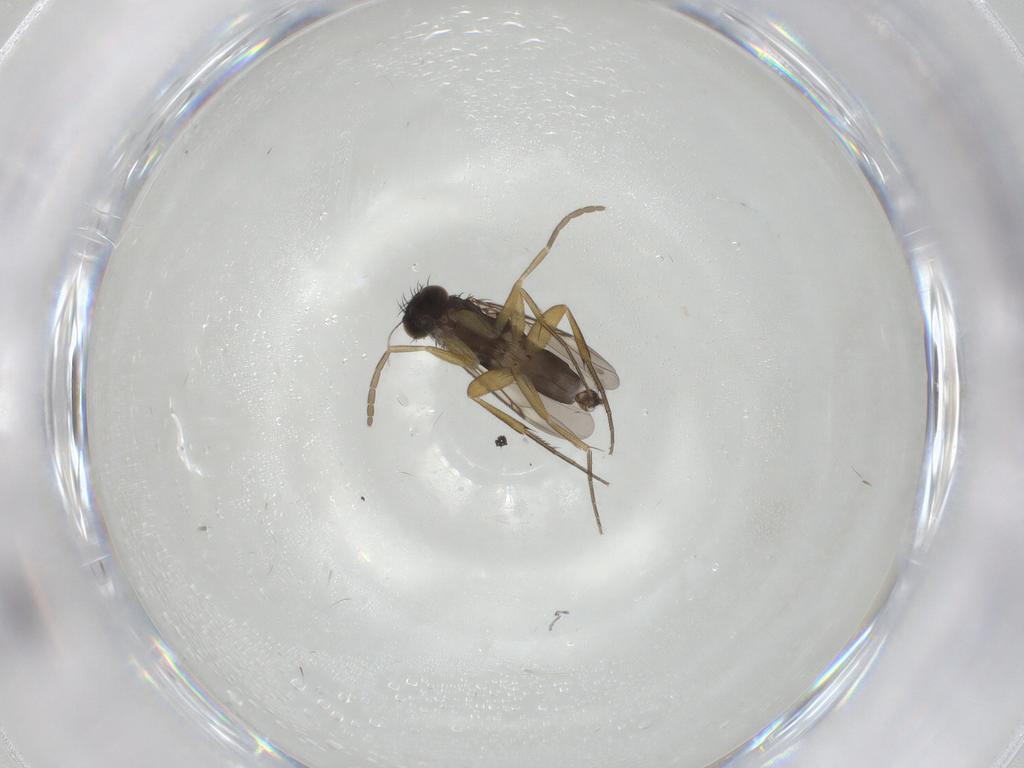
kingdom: Animalia
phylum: Arthropoda
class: Insecta
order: Diptera
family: Phoridae
